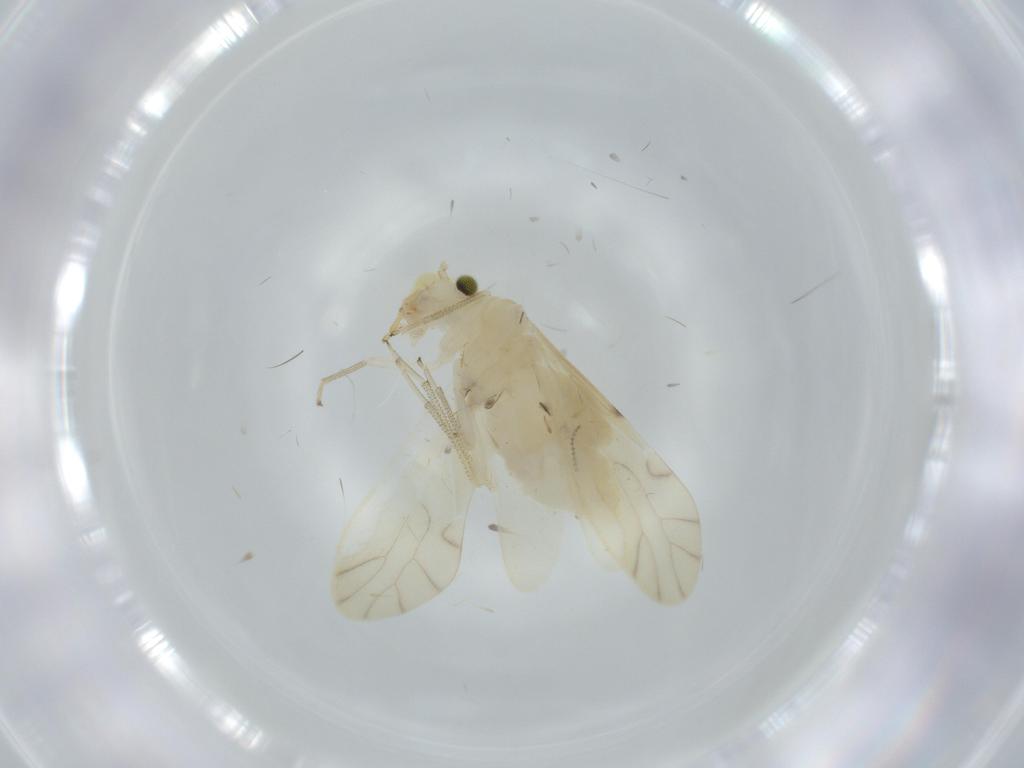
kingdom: Animalia
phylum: Arthropoda
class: Insecta
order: Psocodea
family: Caeciliusidae
